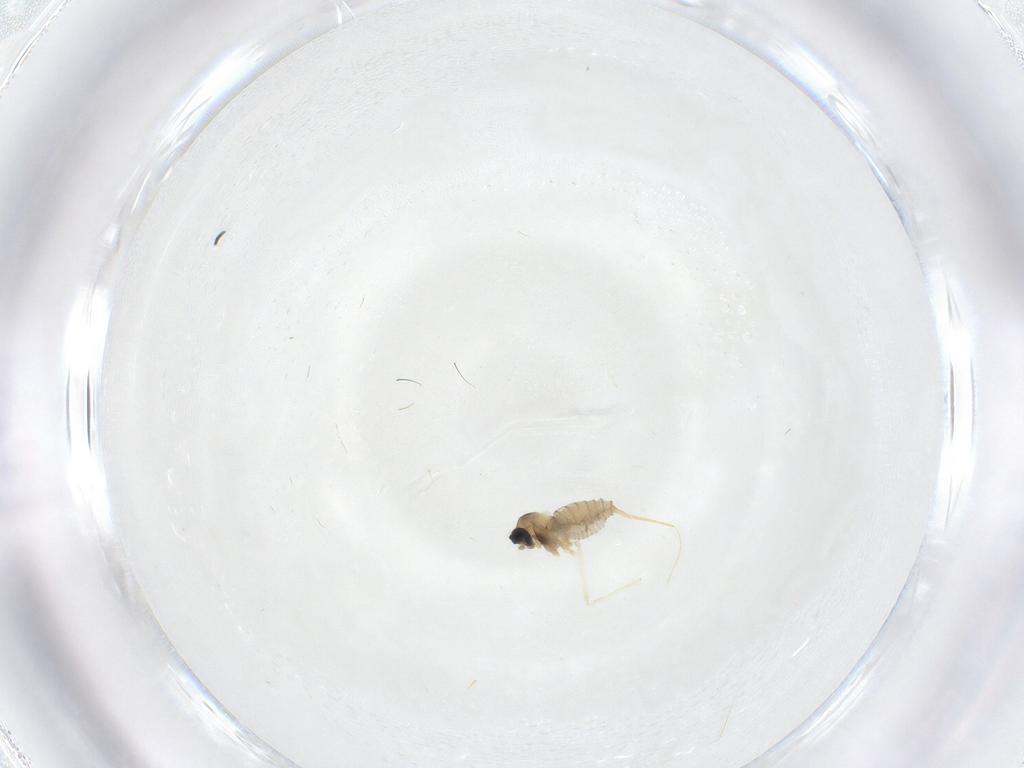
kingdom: Animalia
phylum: Arthropoda
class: Insecta
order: Diptera
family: Cecidomyiidae
